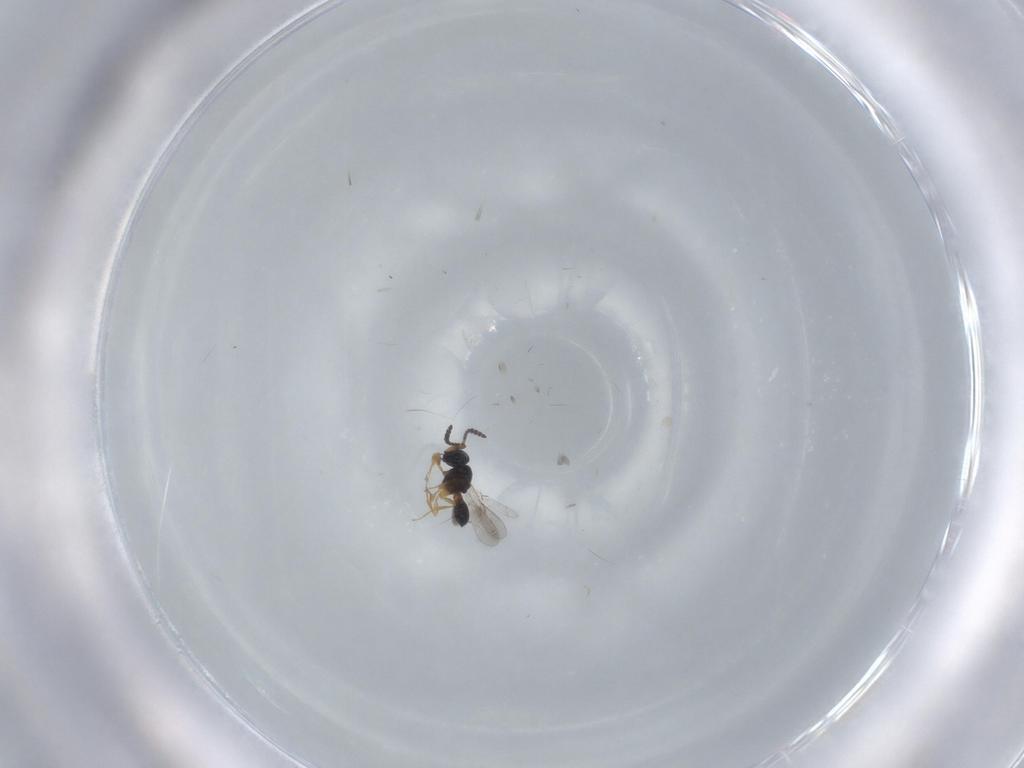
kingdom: Animalia
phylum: Arthropoda
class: Insecta
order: Hymenoptera
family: Scelionidae
